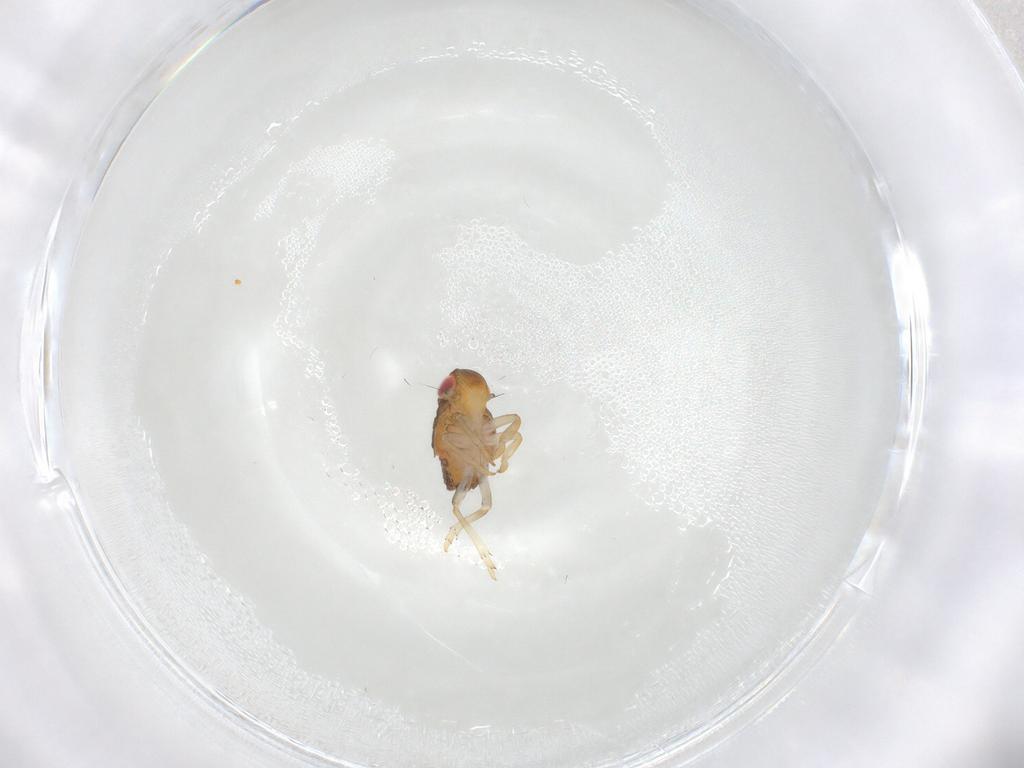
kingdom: Animalia
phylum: Arthropoda
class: Insecta
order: Hemiptera
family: Issidae
